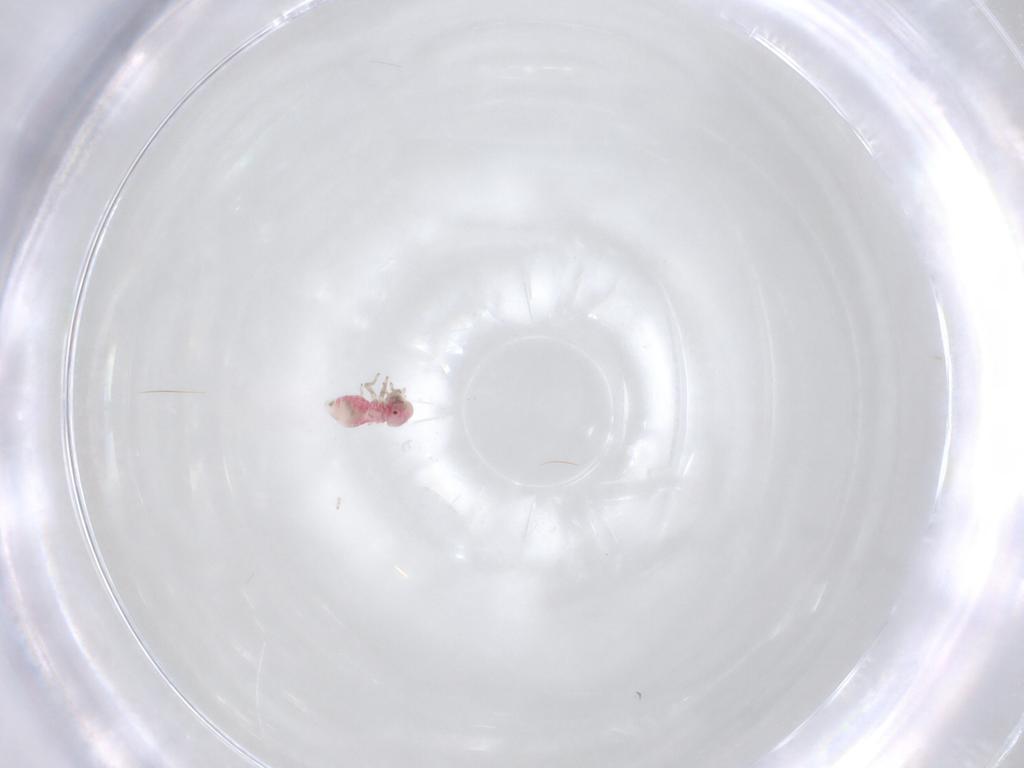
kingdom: Animalia
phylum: Arthropoda
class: Insecta
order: Psocodea
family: Caeciliusidae
